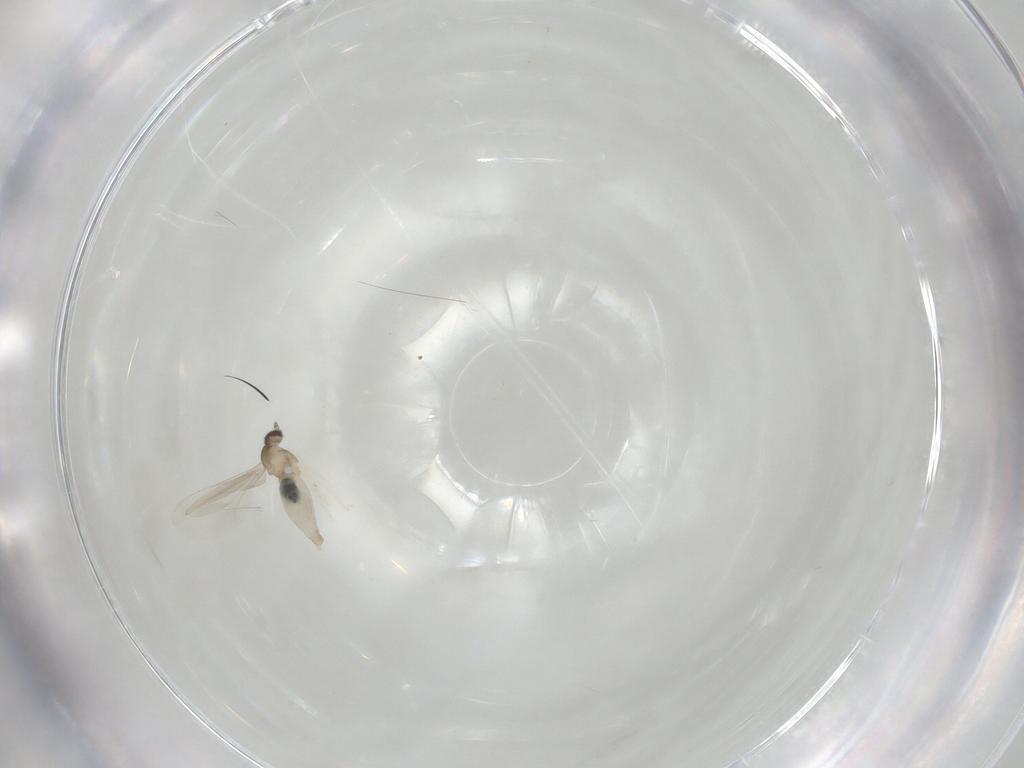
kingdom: Animalia
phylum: Arthropoda
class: Insecta
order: Diptera
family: Cecidomyiidae
